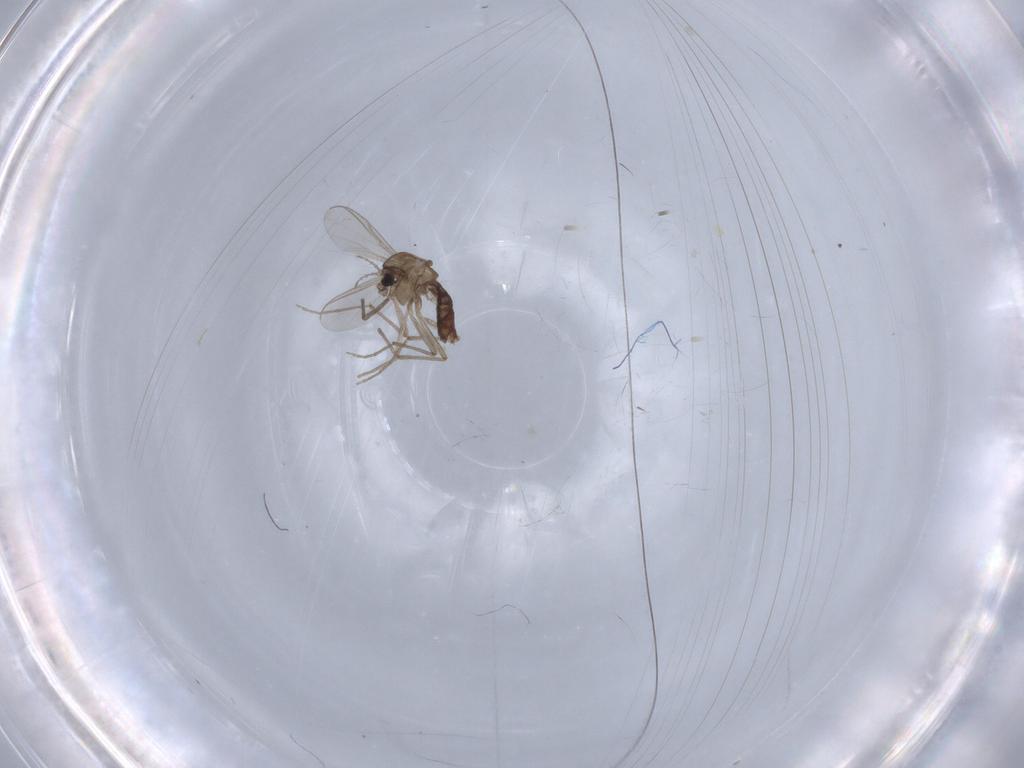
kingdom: Animalia
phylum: Arthropoda
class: Insecta
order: Diptera
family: Chironomidae
